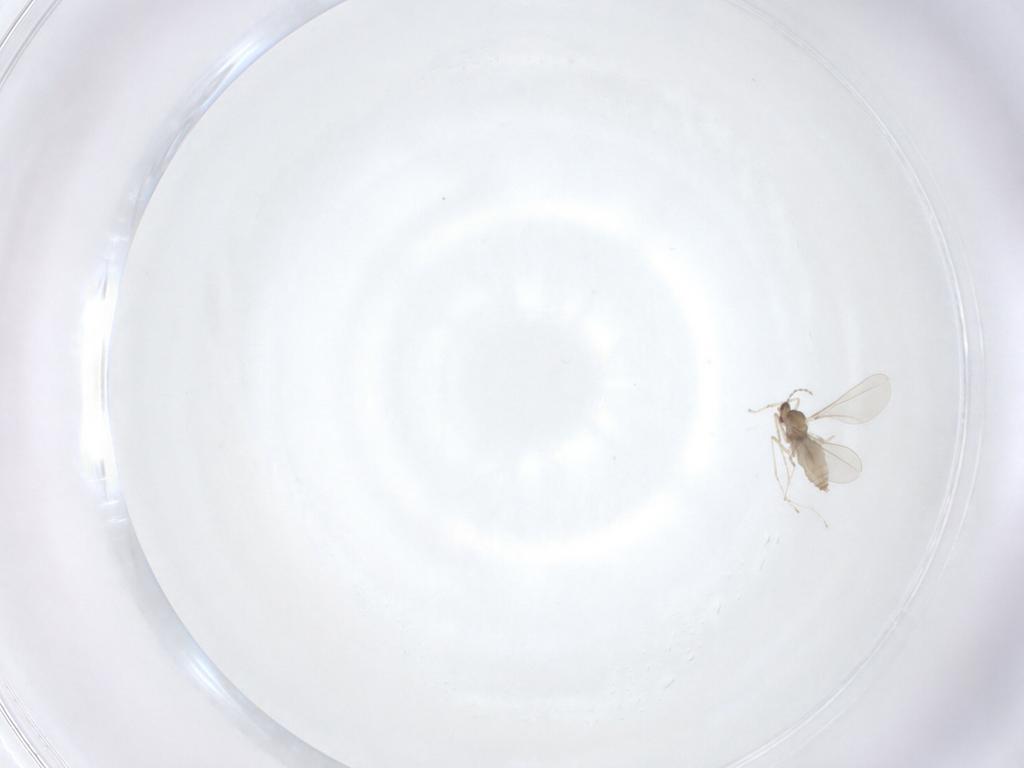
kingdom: Animalia
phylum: Arthropoda
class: Insecta
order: Diptera
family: Cecidomyiidae
